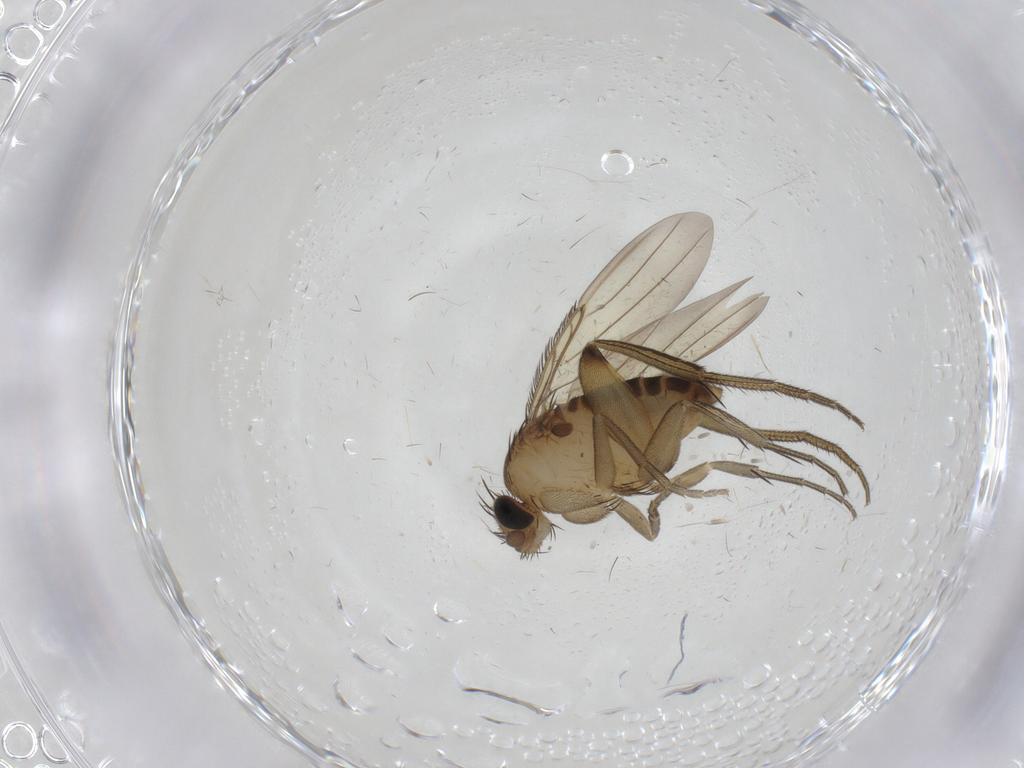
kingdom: Animalia
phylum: Arthropoda
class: Insecta
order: Diptera
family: Phoridae
